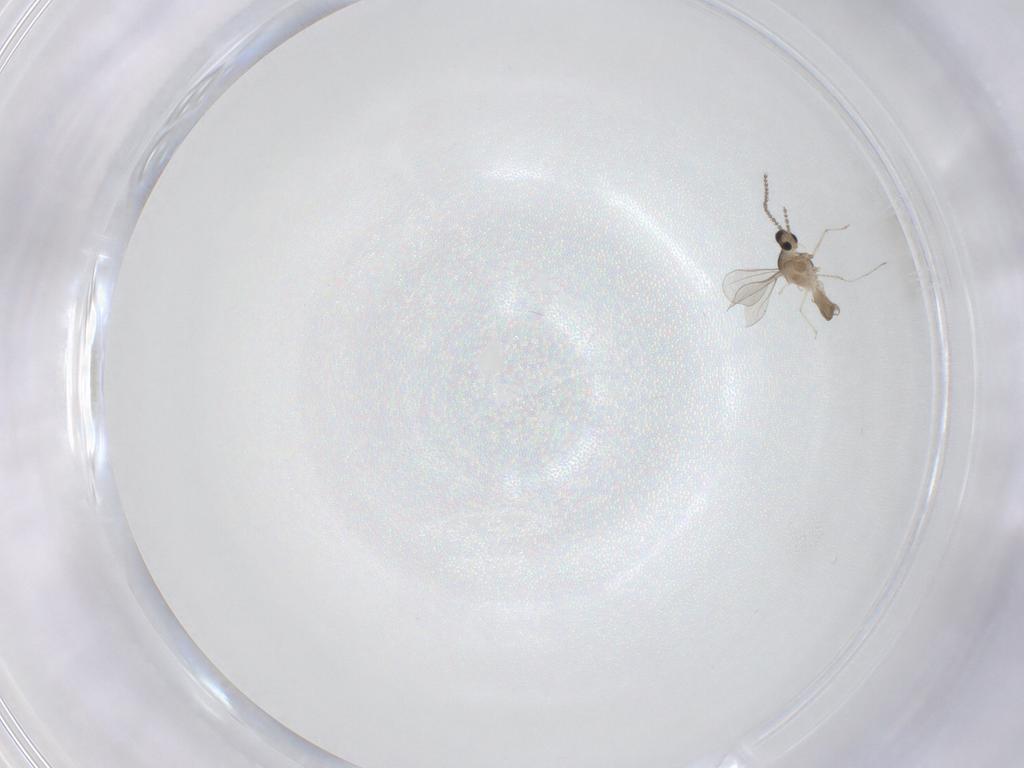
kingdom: Animalia
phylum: Arthropoda
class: Insecta
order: Diptera
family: Cecidomyiidae
